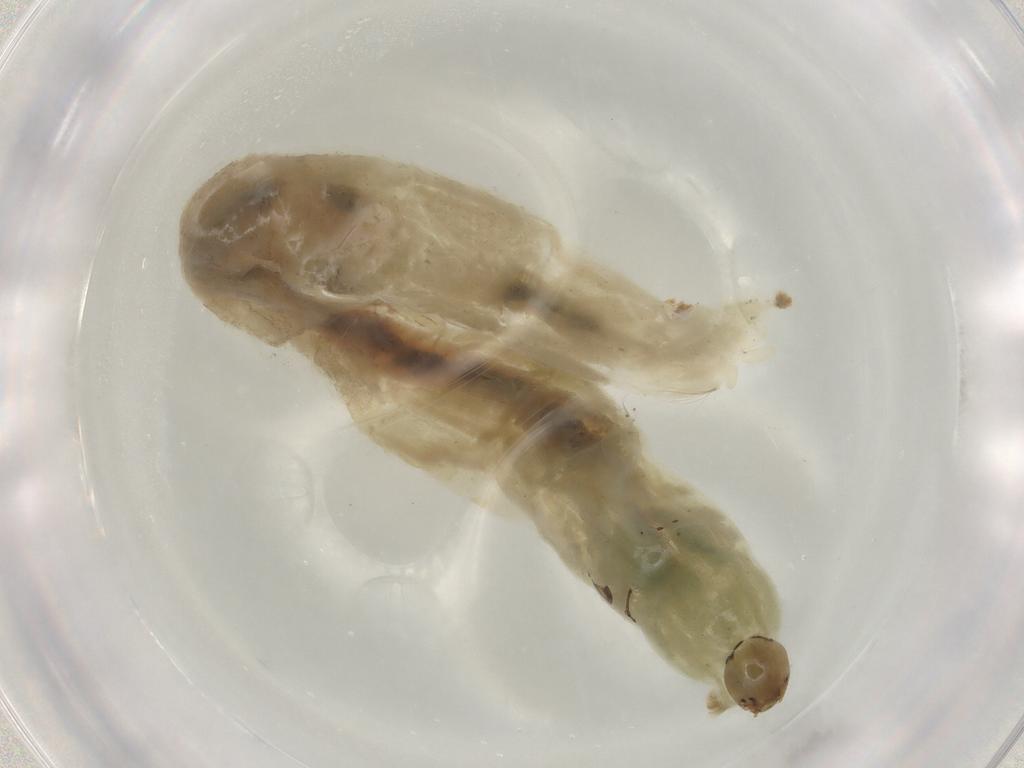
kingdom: Animalia
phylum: Arthropoda
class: Insecta
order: Diptera
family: Chironomidae
